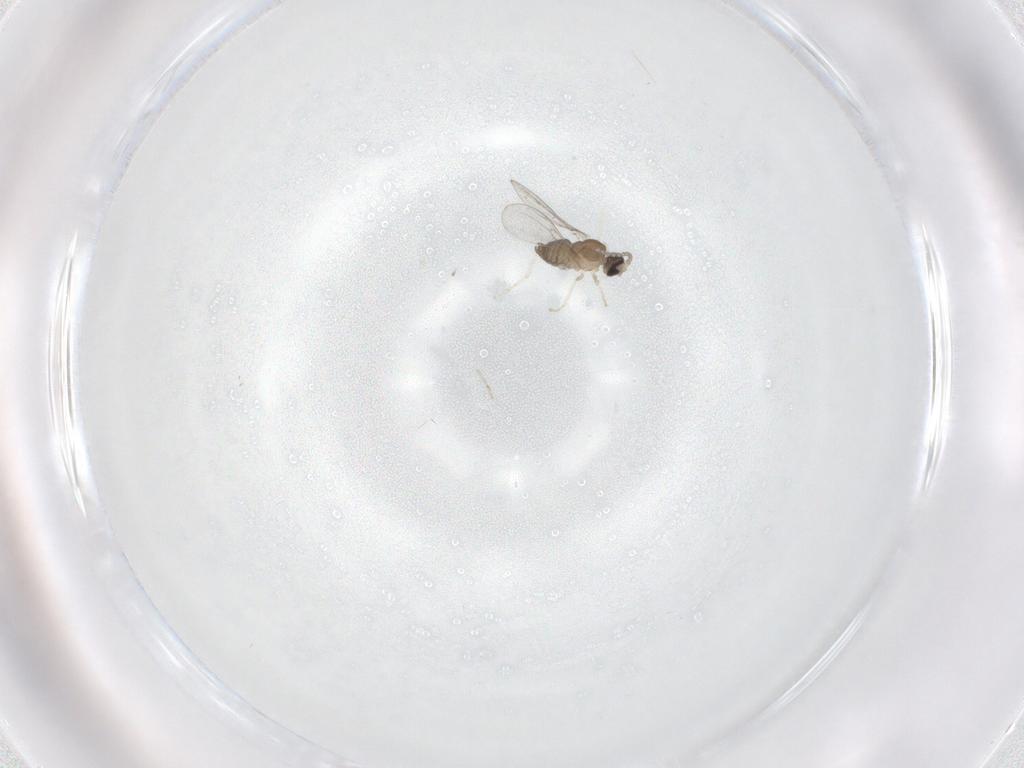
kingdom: Animalia
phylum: Arthropoda
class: Insecta
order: Diptera
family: Cecidomyiidae
